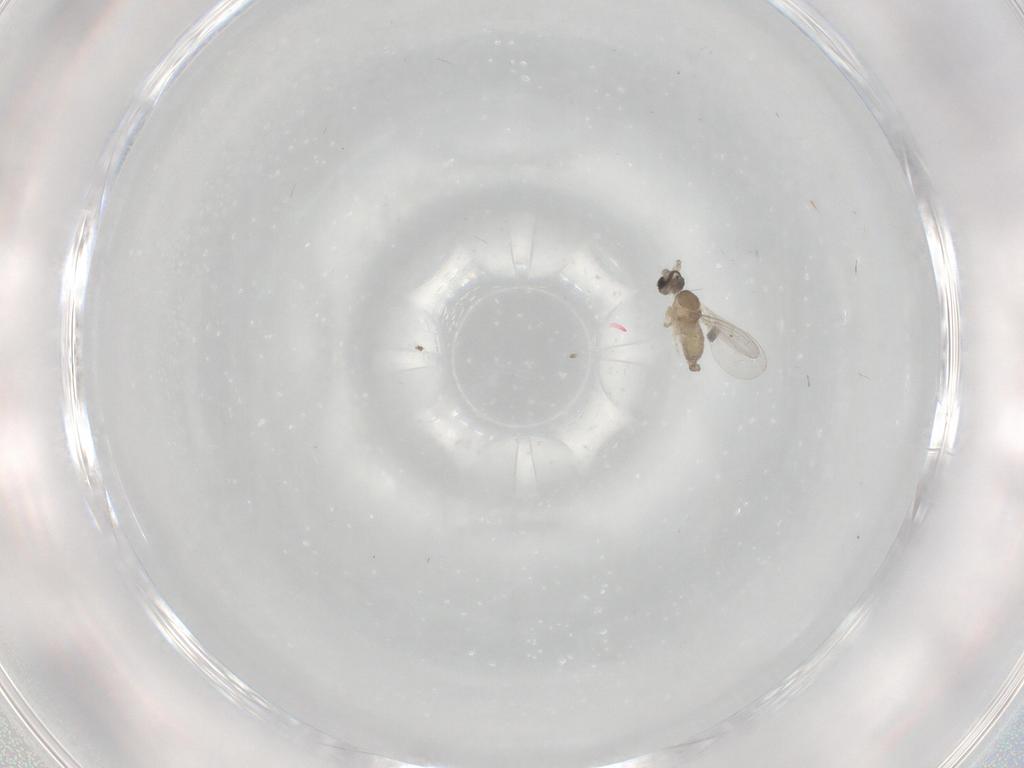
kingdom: Animalia
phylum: Arthropoda
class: Insecta
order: Diptera
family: Cecidomyiidae
